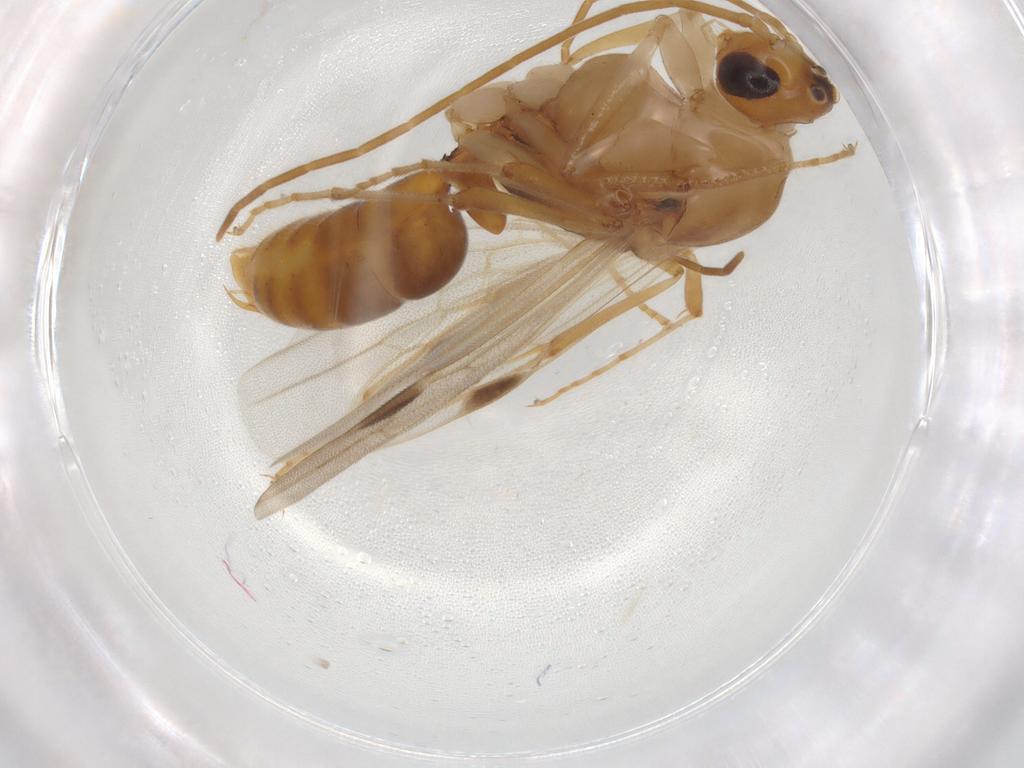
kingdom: Animalia
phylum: Arthropoda
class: Insecta
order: Hymenoptera
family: Formicidae
